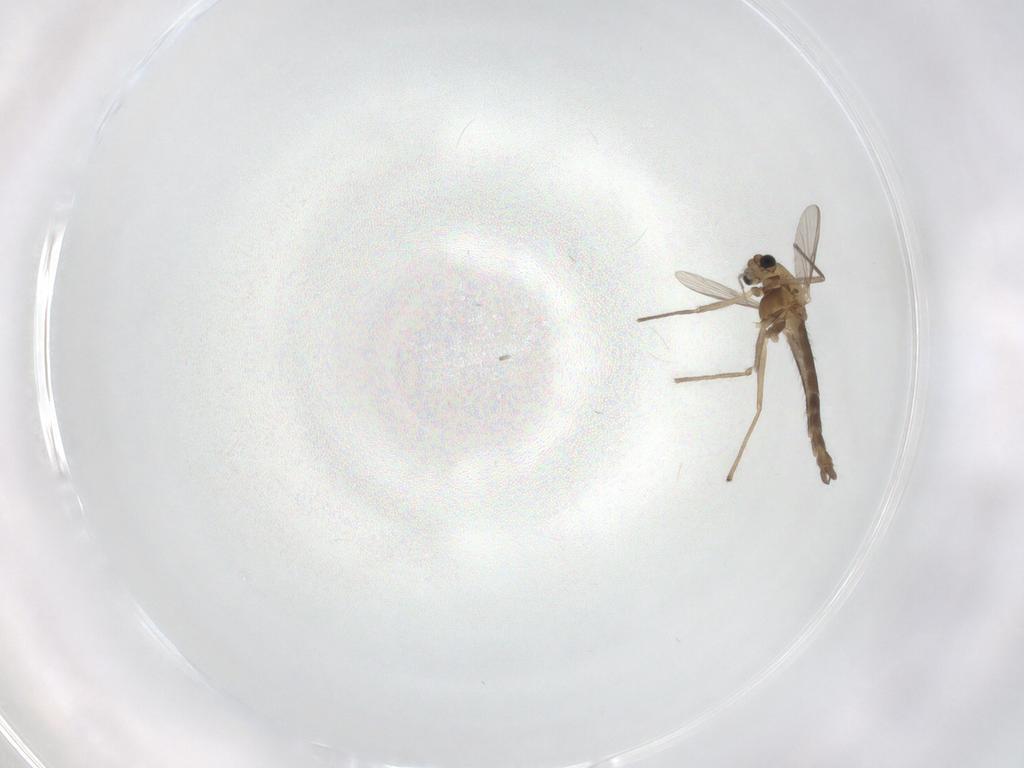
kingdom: Animalia
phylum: Arthropoda
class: Insecta
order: Diptera
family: Chironomidae
